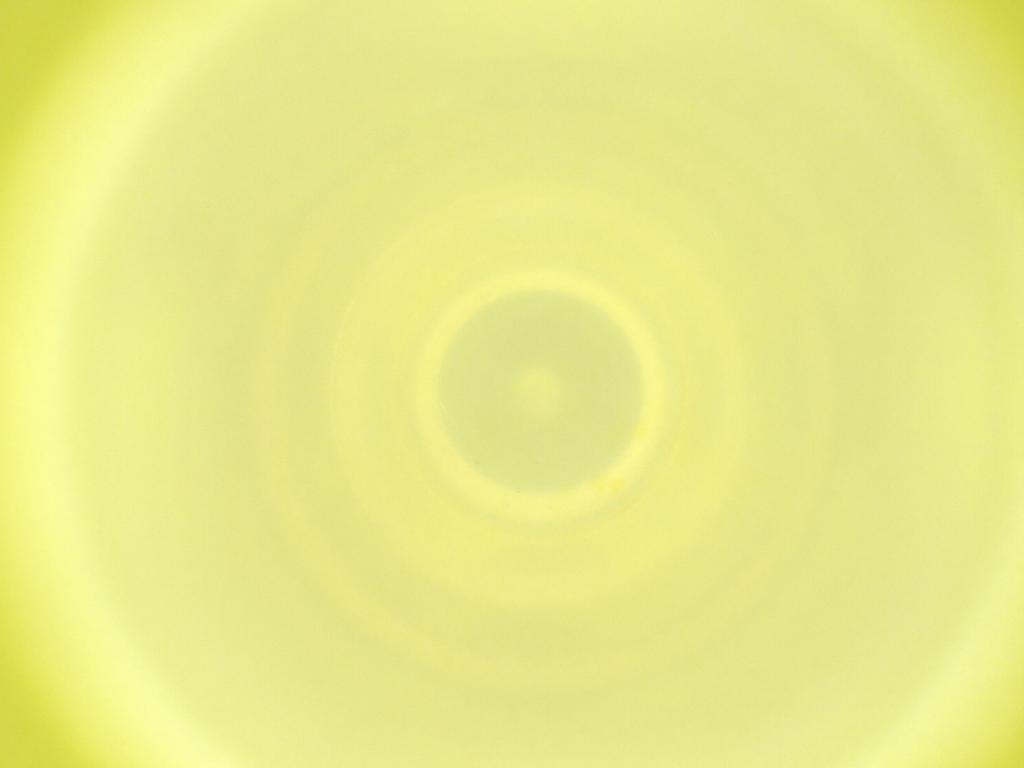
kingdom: Animalia
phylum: Arthropoda
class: Insecta
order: Diptera
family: Cecidomyiidae
